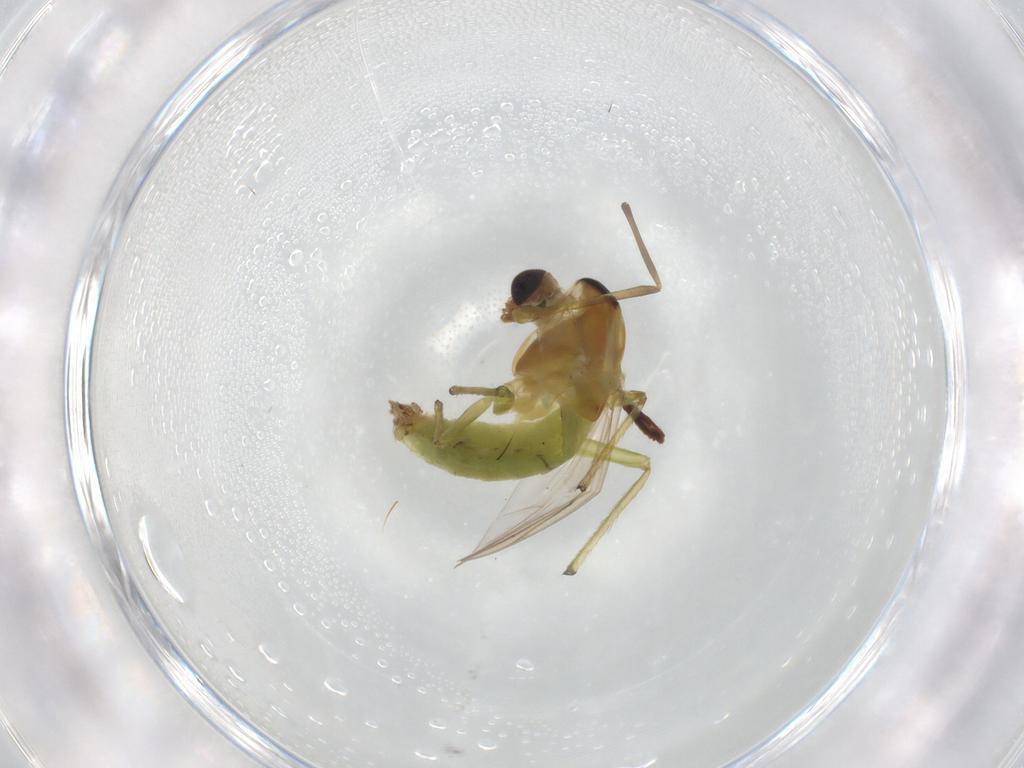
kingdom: Animalia
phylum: Arthropoda
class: Insecta
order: Diptera
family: Chironomidae
